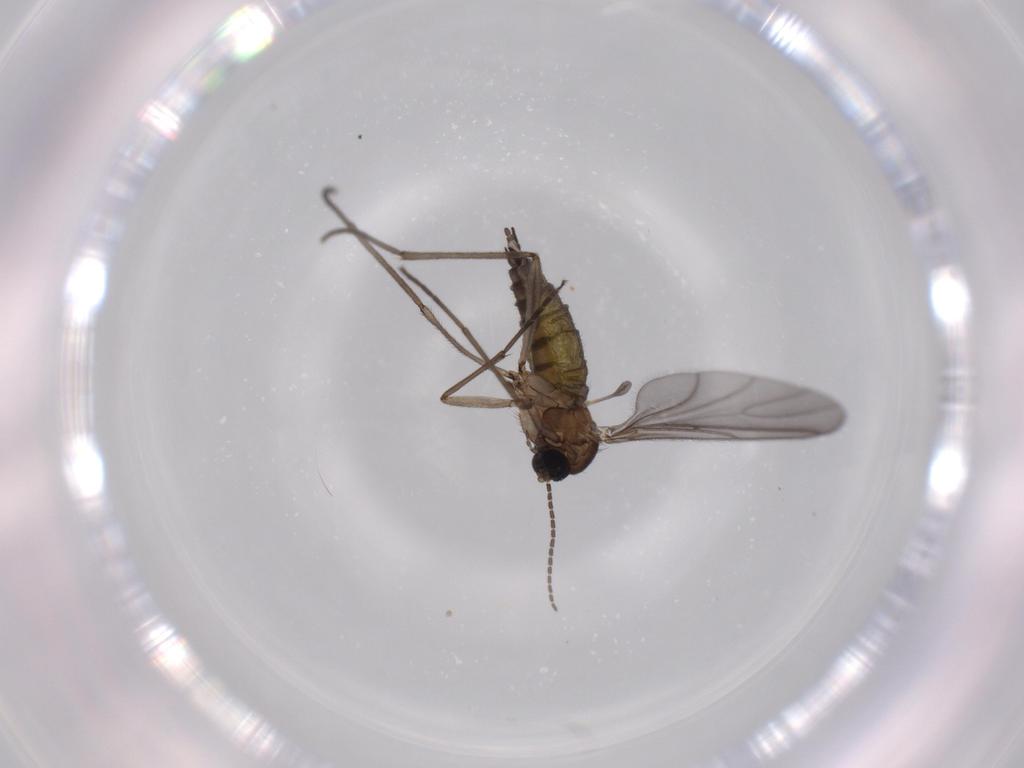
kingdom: Animalia
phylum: Arthropoda
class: Insecta
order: Diptera
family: Sciaridae
